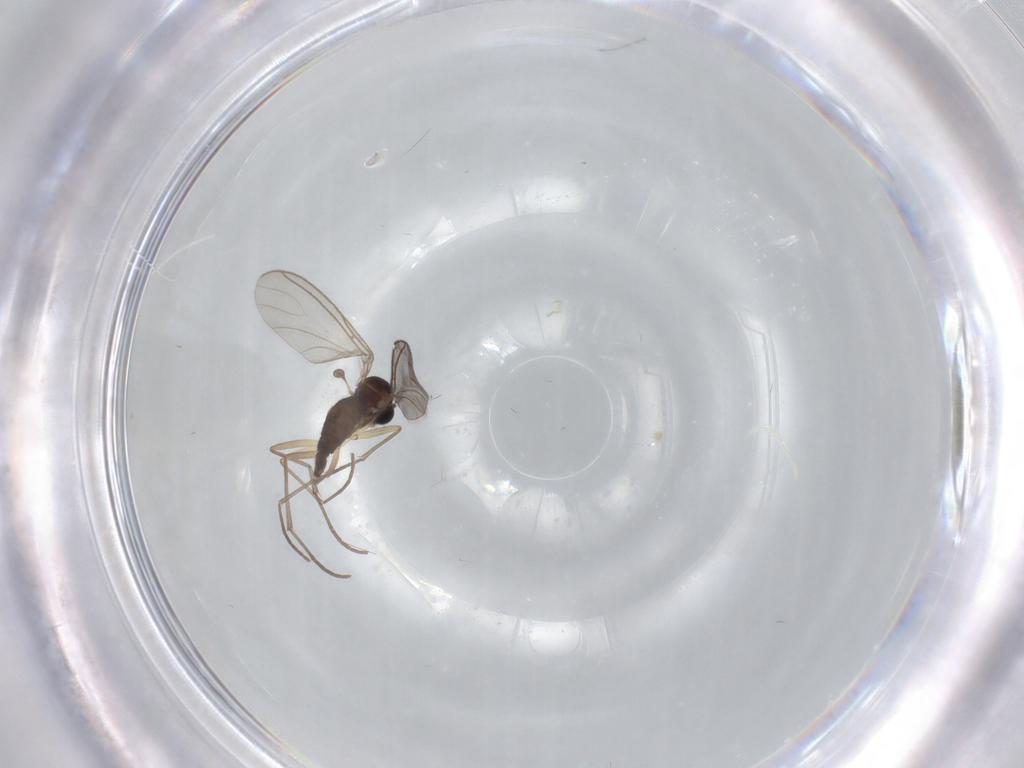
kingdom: Animalia
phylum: Arthropoda
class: Insecta
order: Diptera
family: Sciaridae
